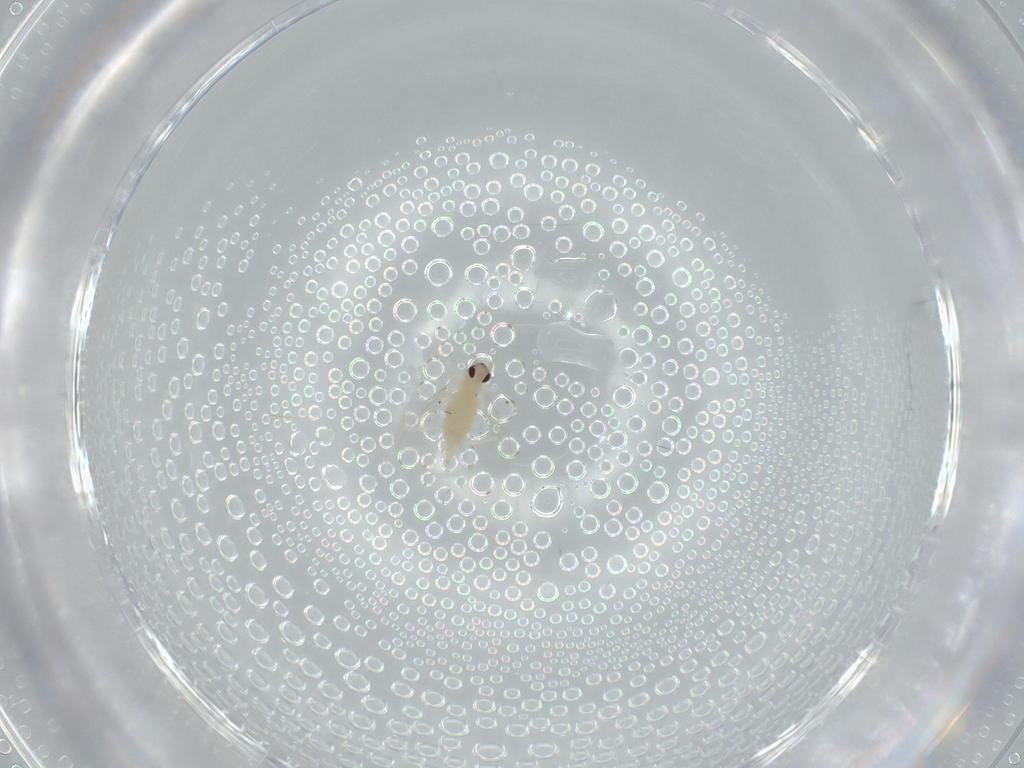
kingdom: Animalia
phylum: Arthropoda
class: Insecta
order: Diptera
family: Cecidomyiidae
